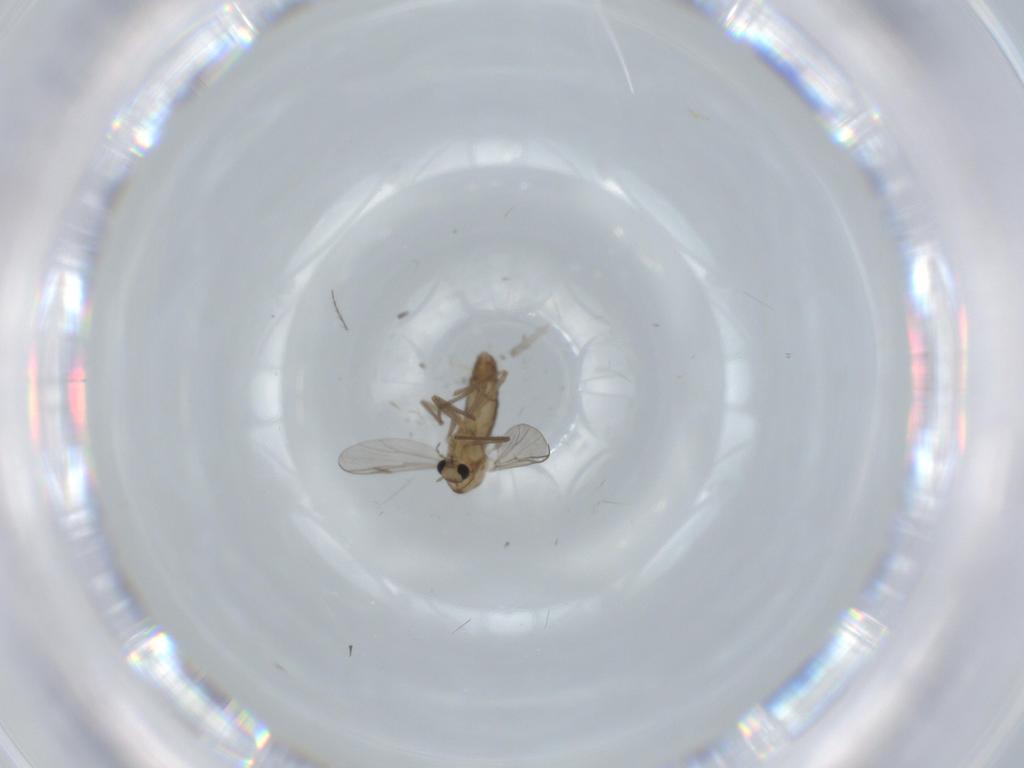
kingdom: Animalia
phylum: Arthropoda
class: Insecta
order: Diptera
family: Chironomidae
